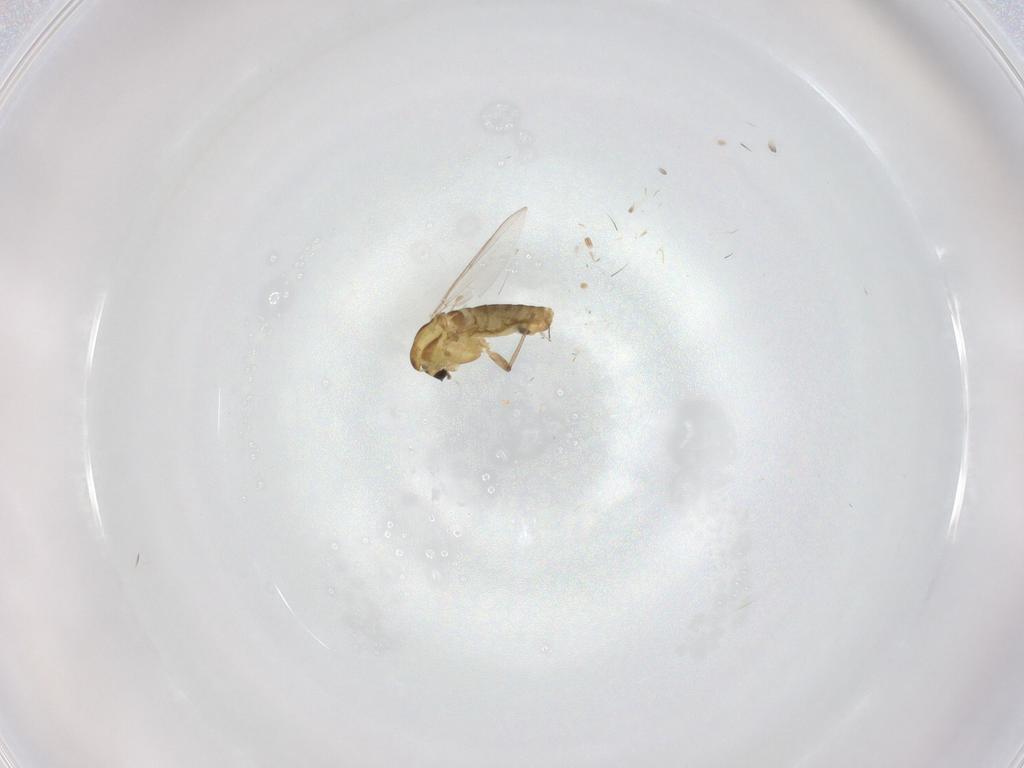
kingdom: Animalia
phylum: Arthropoda
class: Insecta
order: Diptera
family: Chironomidae
